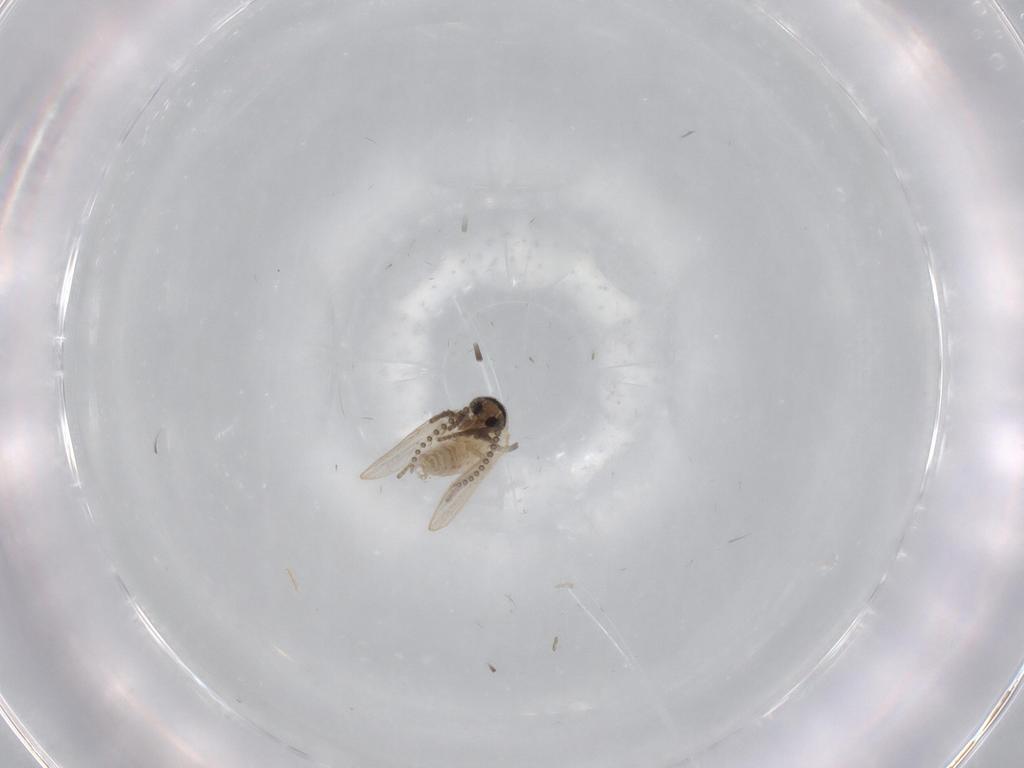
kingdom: Animalia
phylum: Arthropoda
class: Insecta
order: Diptera
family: Psychodidae
